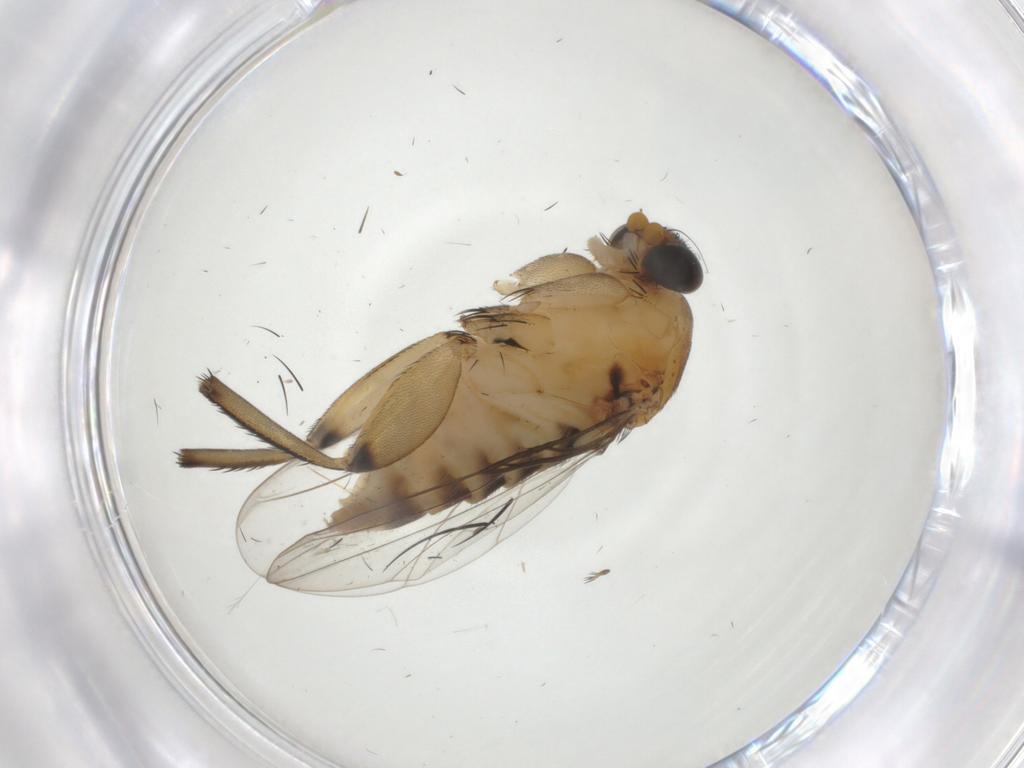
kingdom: Animalia
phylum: Arthropoda
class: Insecta
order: Diptera
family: Phoridae
